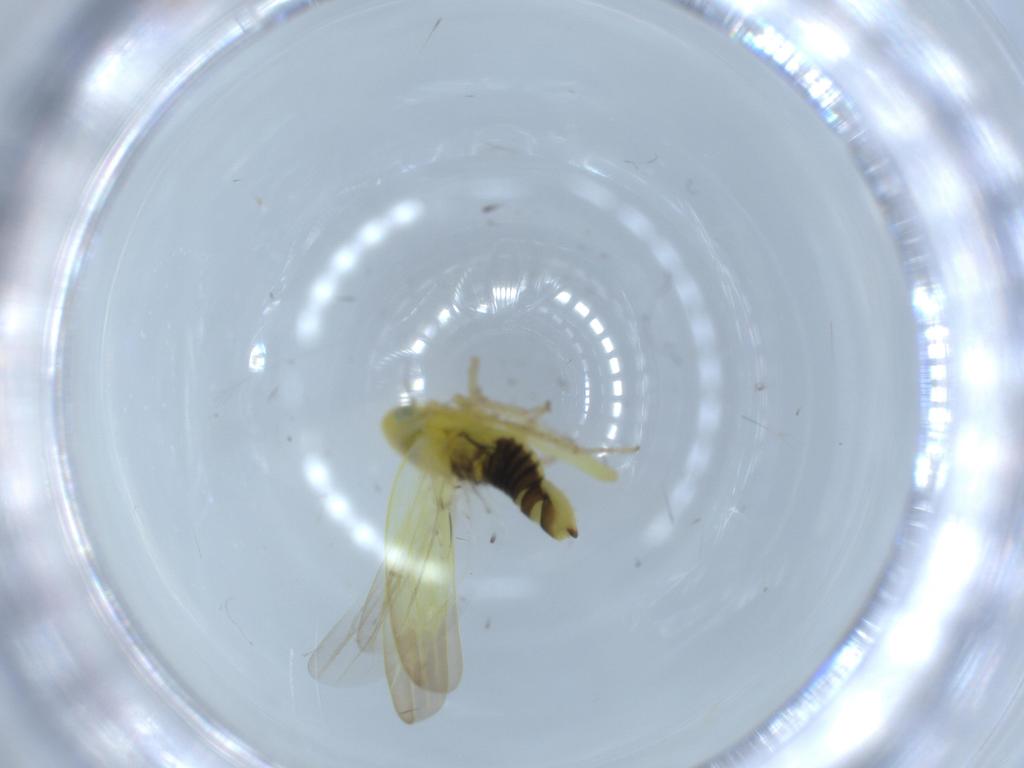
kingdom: Animalia
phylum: Arthropoda
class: Insecta
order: Hemiptera
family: Cicadellidae
